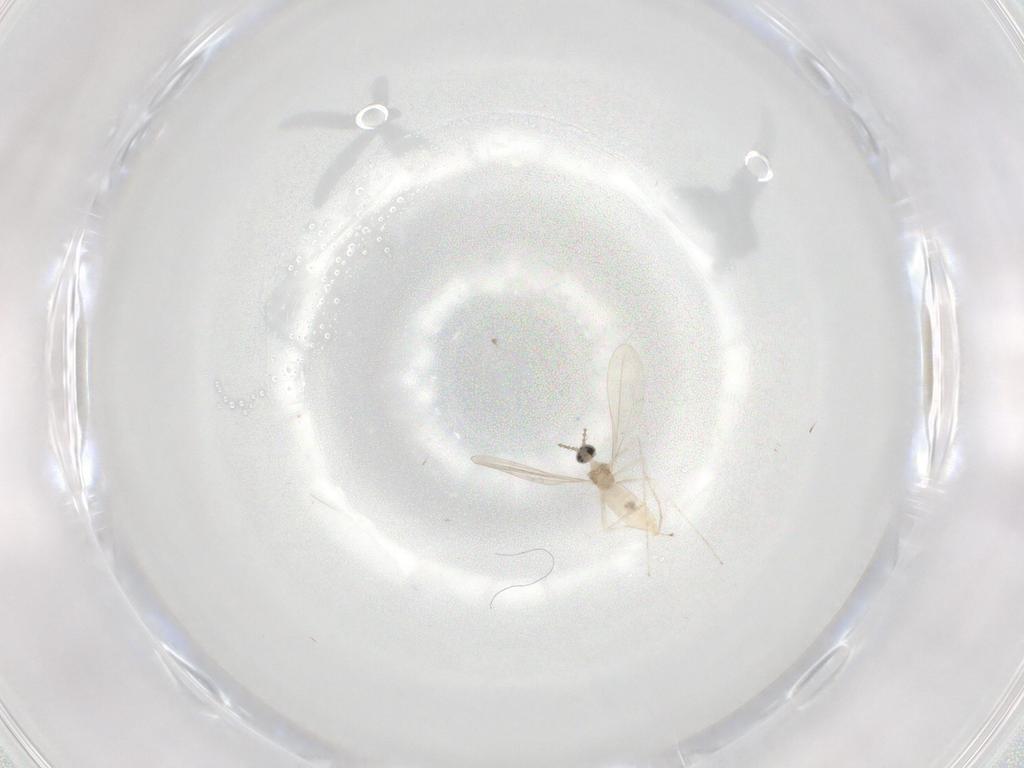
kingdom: Animalia
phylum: Arthropoda
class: Insecta
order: Diptera
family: Cecidomyiidae
